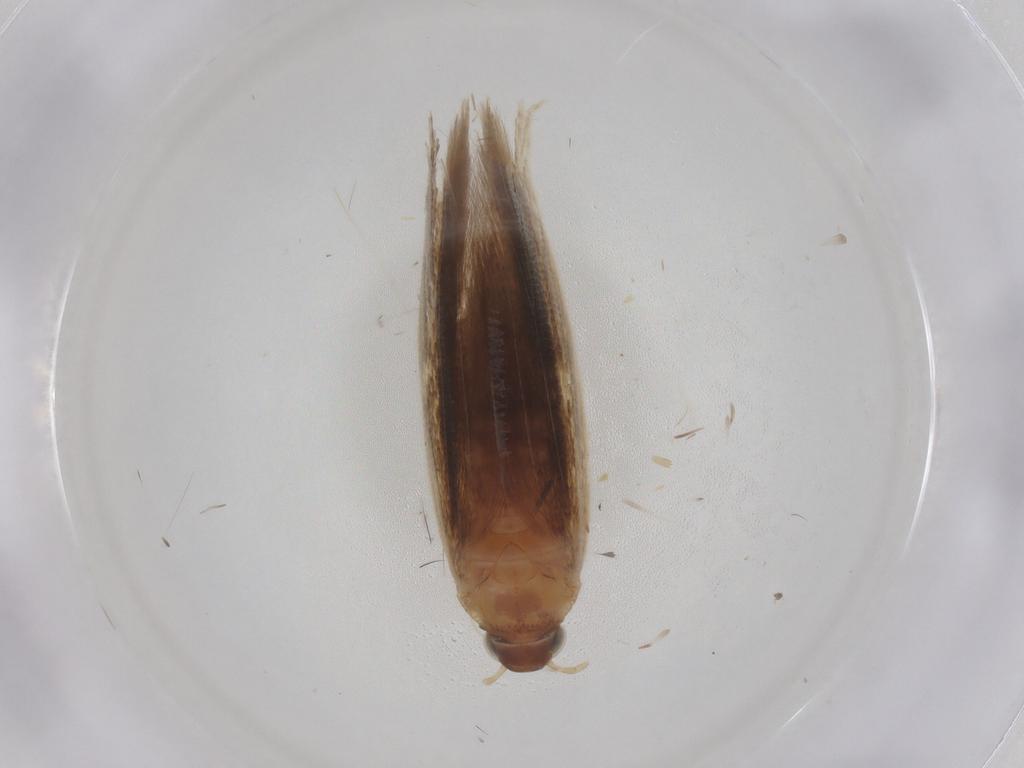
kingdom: Animalia
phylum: Arthropoda
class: Insecta
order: Lepidoptera
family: Gelechiidae
